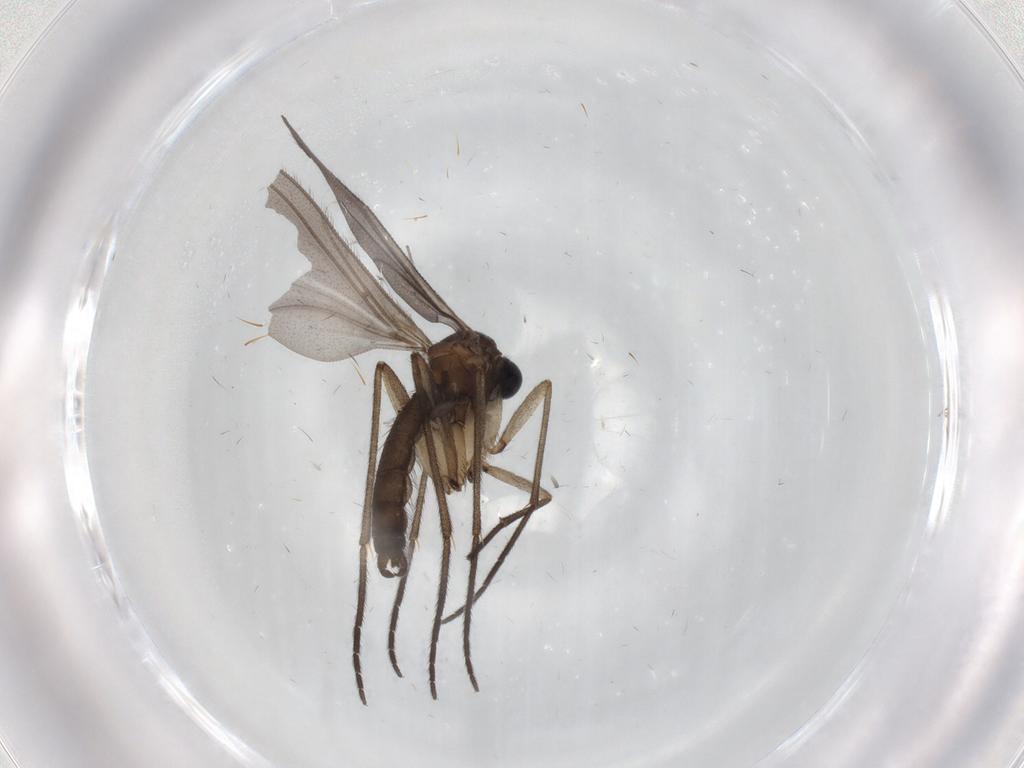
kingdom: Animalia
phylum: Arthropoda
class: Insecta
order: Diptera
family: Sciaridae
